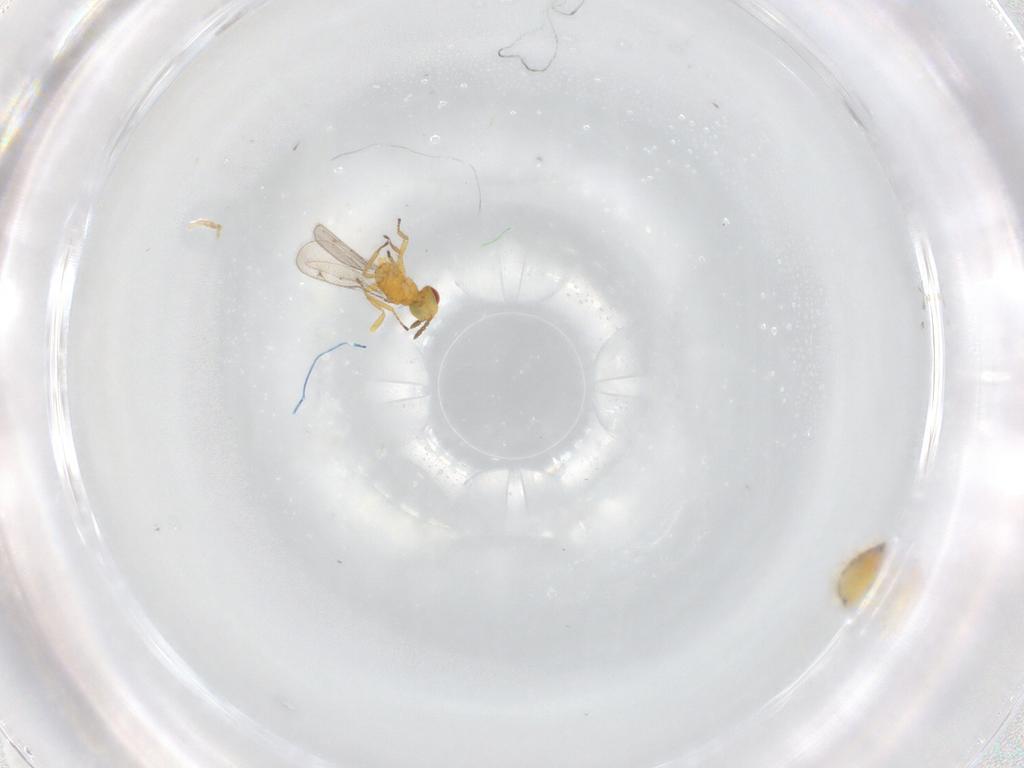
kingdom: Animalia
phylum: Arthropoda
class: Insecta
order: Hymenoptera
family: Eulophidae
